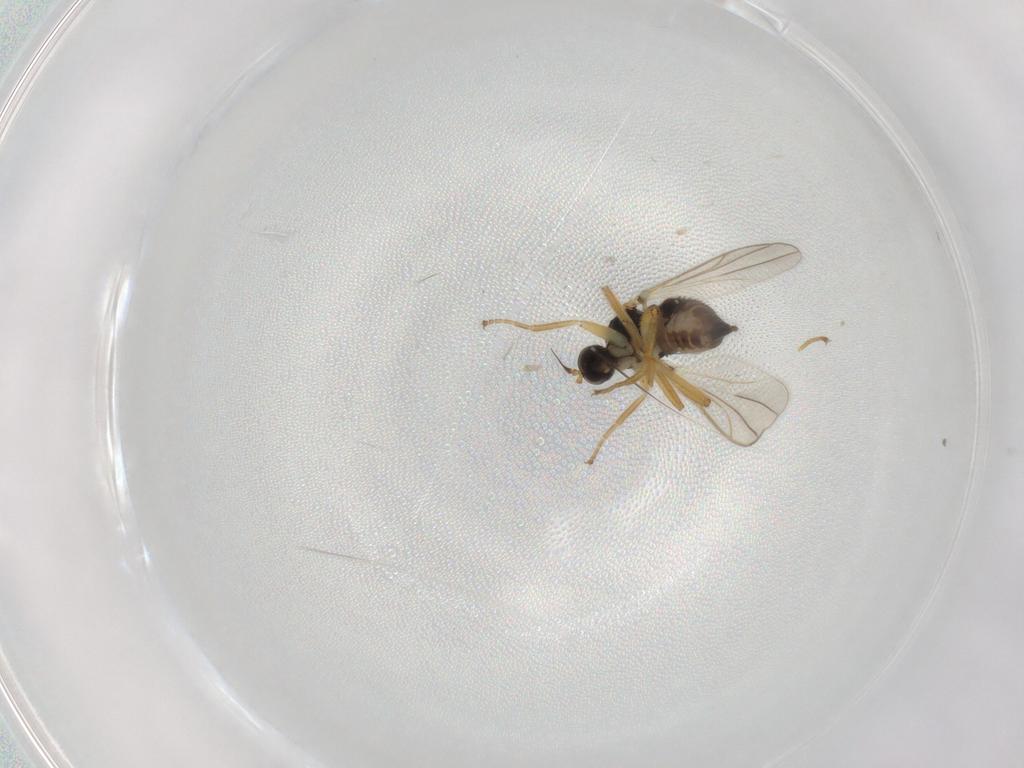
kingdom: Animalia
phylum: Arthropoda
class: Insecta
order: Diptera
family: Hybotidae
